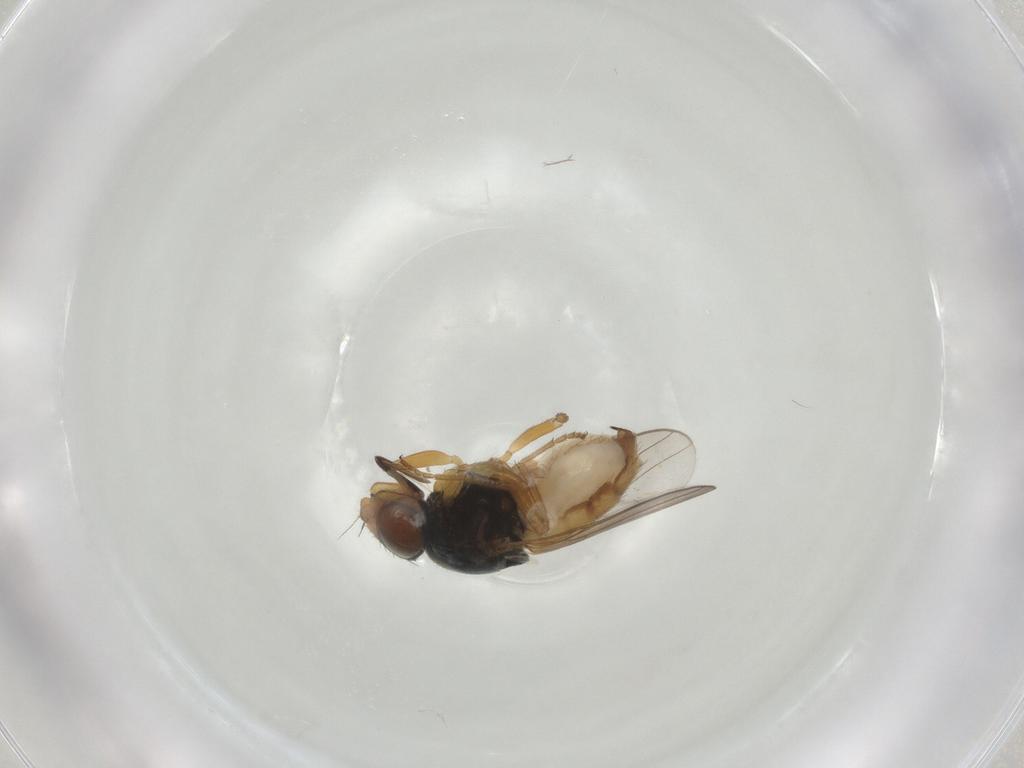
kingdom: Animalia
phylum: Arthropoda
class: Insecta
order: Diptera
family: Chloropidae
